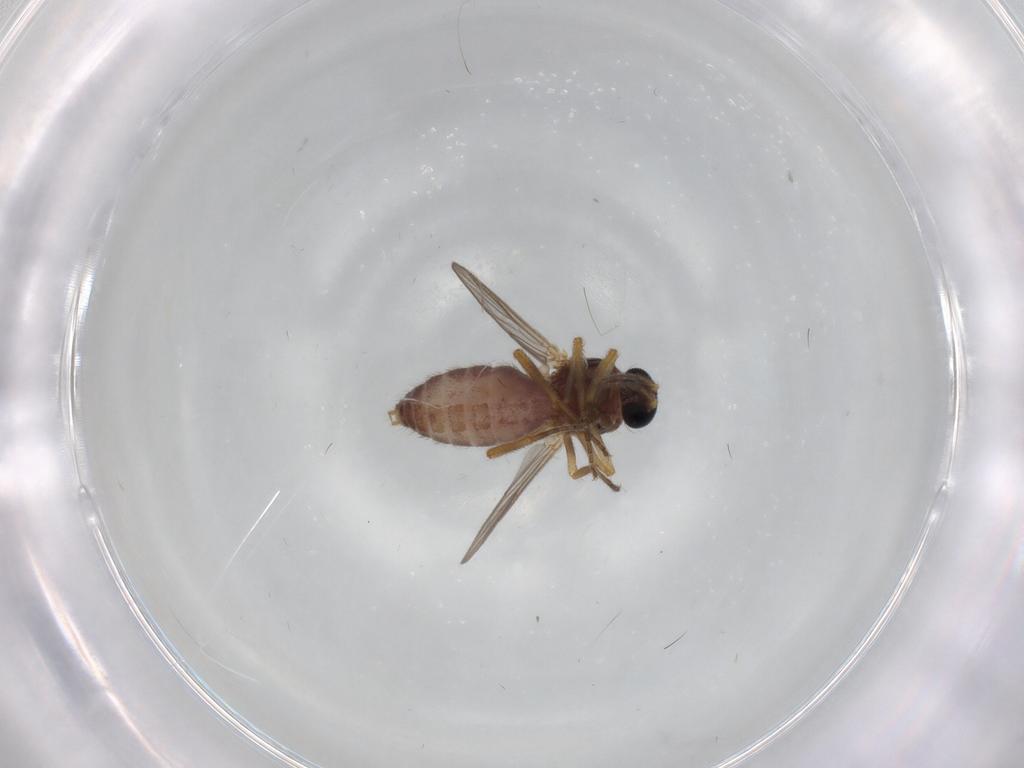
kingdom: Animalia
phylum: Arthropoda
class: Insecta
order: Diptera
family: Ceratopogonidae
